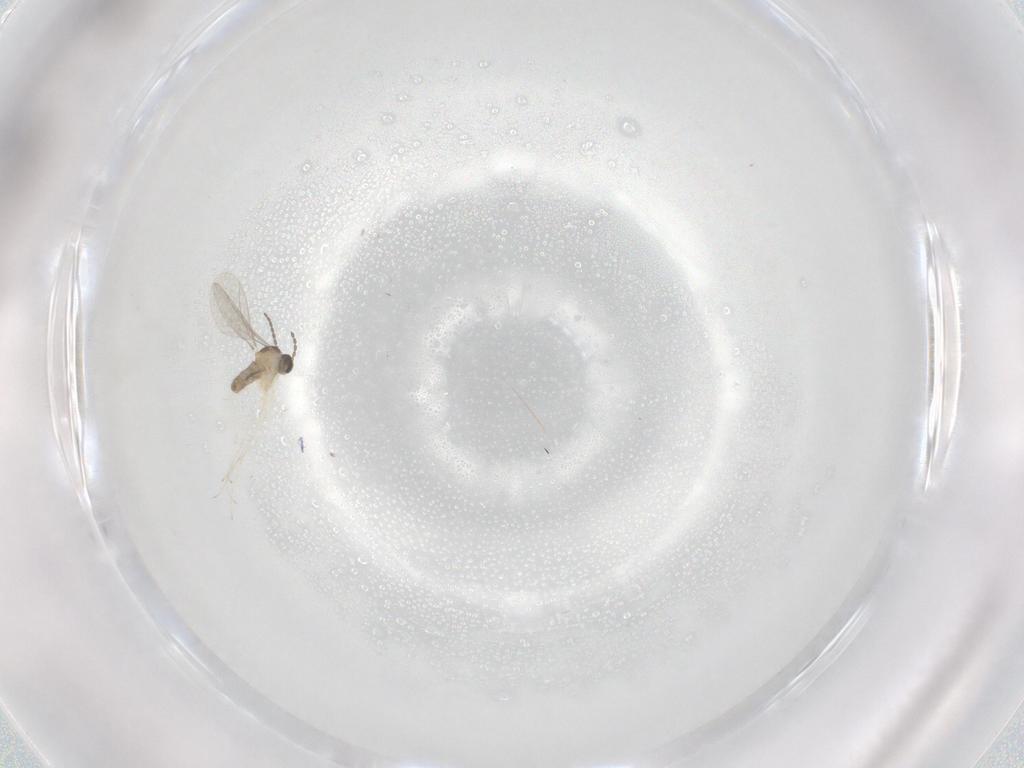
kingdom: Animalia
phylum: Arthropoda
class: Insecta
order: Diptera
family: Cecidomyiidae
